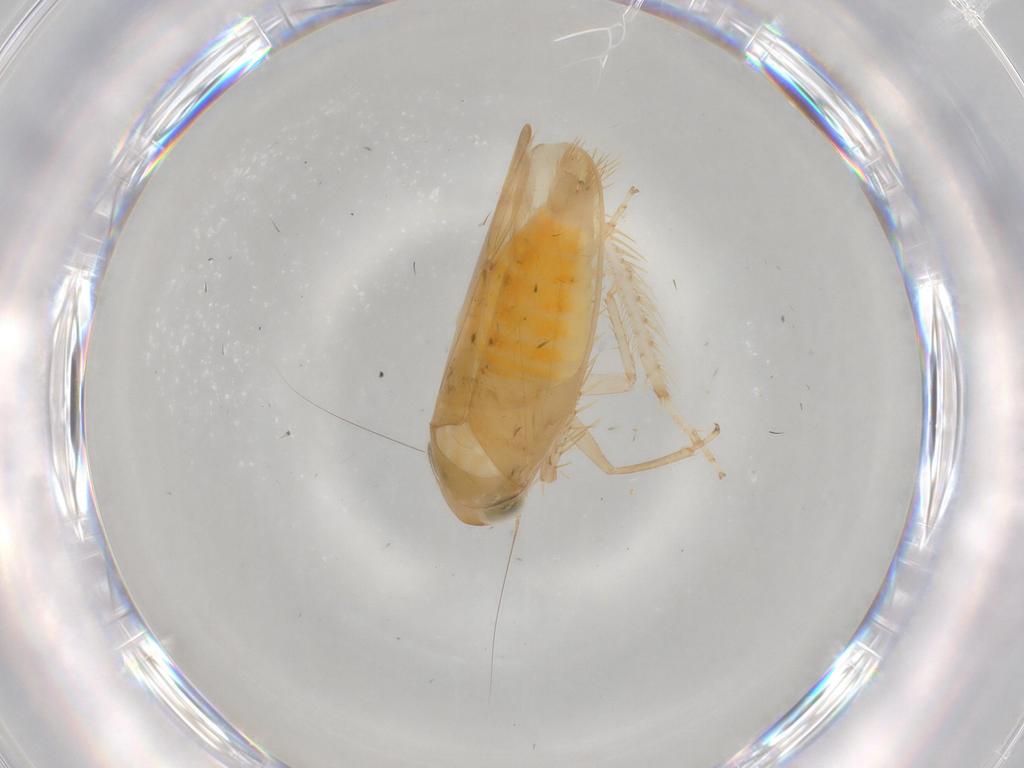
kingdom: Animalia
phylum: Arthropoda
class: Insecta
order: Hemiptera
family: Cicadellidae
